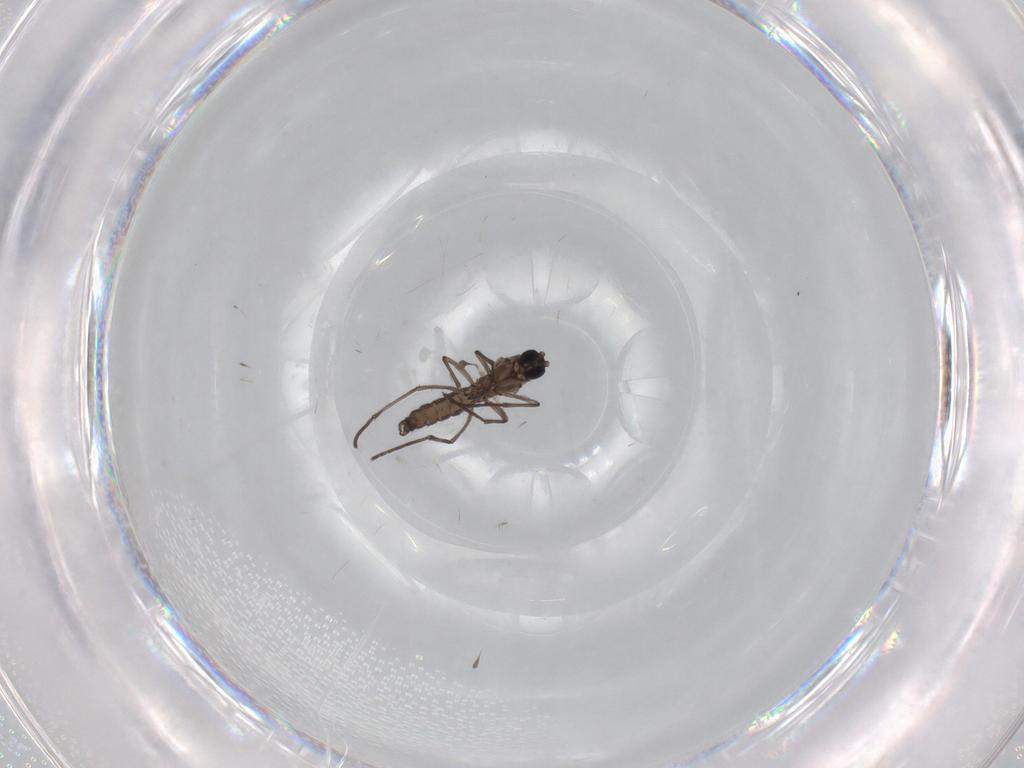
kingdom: Animalia
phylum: Arthropoda
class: Insecta
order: Diptera
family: Cecidomyiidae
